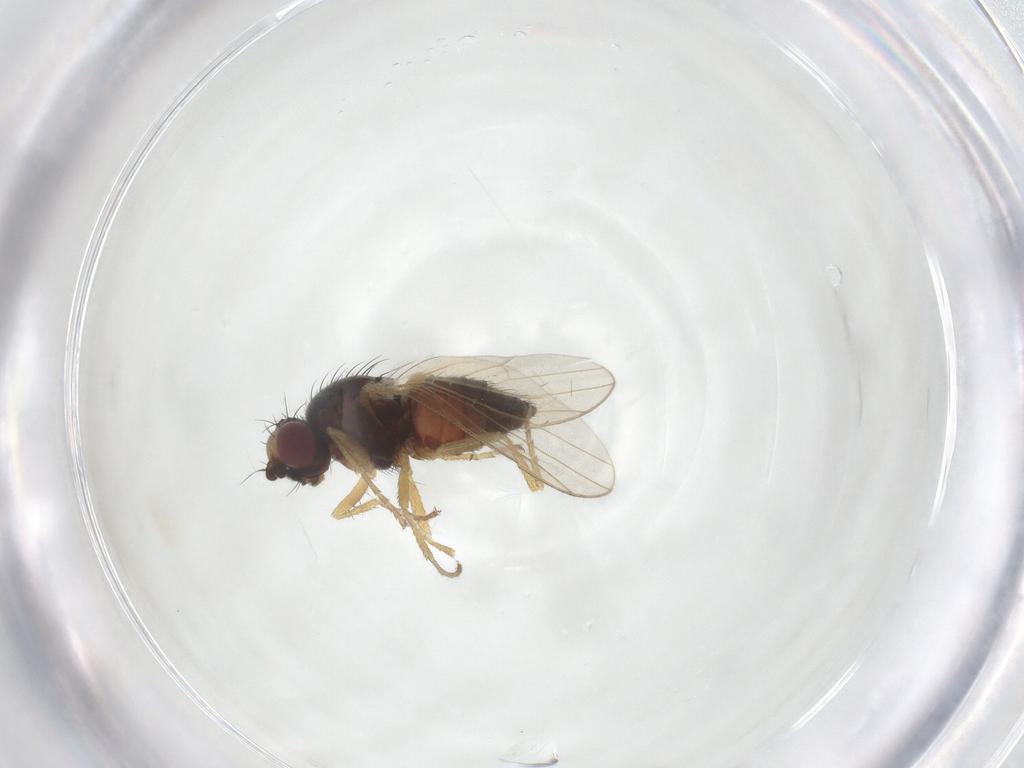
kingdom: Animalia
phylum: Arthropoda
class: Insecta
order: Diptera
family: Heleomyzidae
